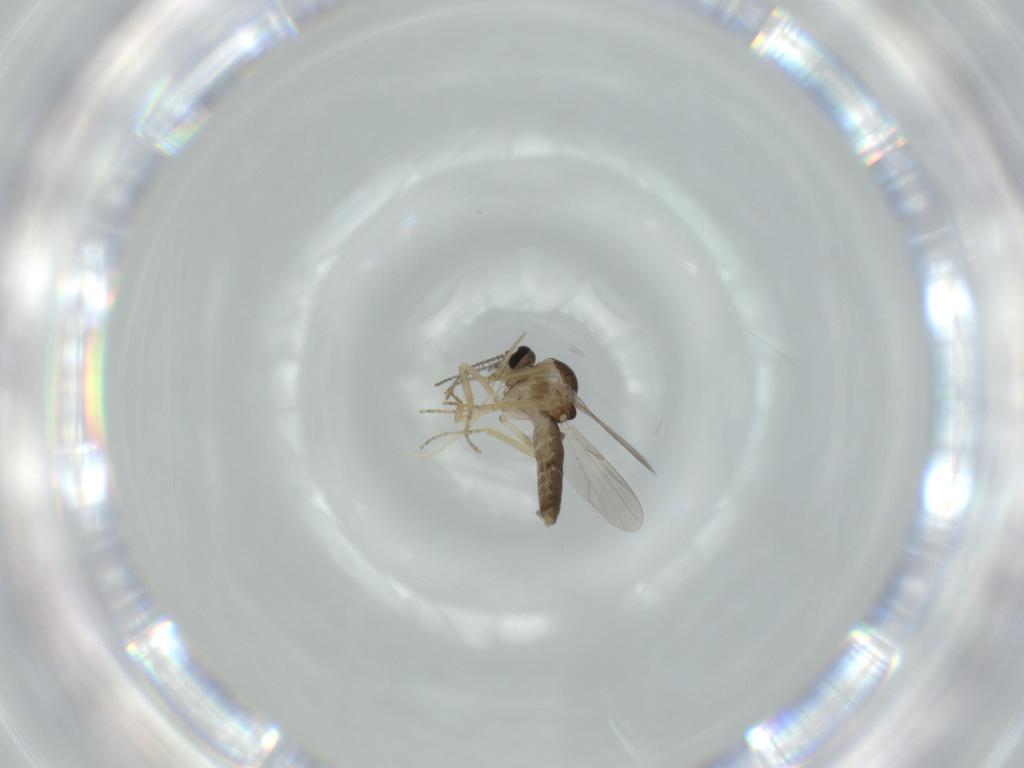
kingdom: Animalia
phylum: Arthropoda
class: Insecta
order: Diptera
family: Ceratopogonidae
